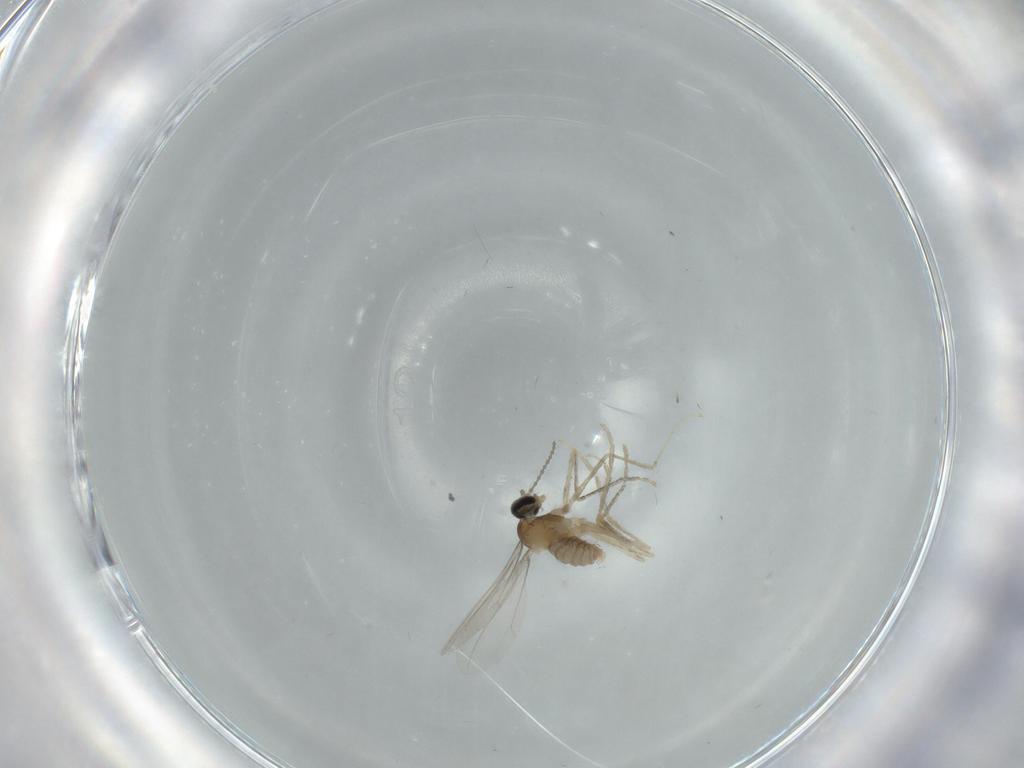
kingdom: Animalia
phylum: Arthropoda
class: Insecta
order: Diptera
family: Cecidomyiidae
